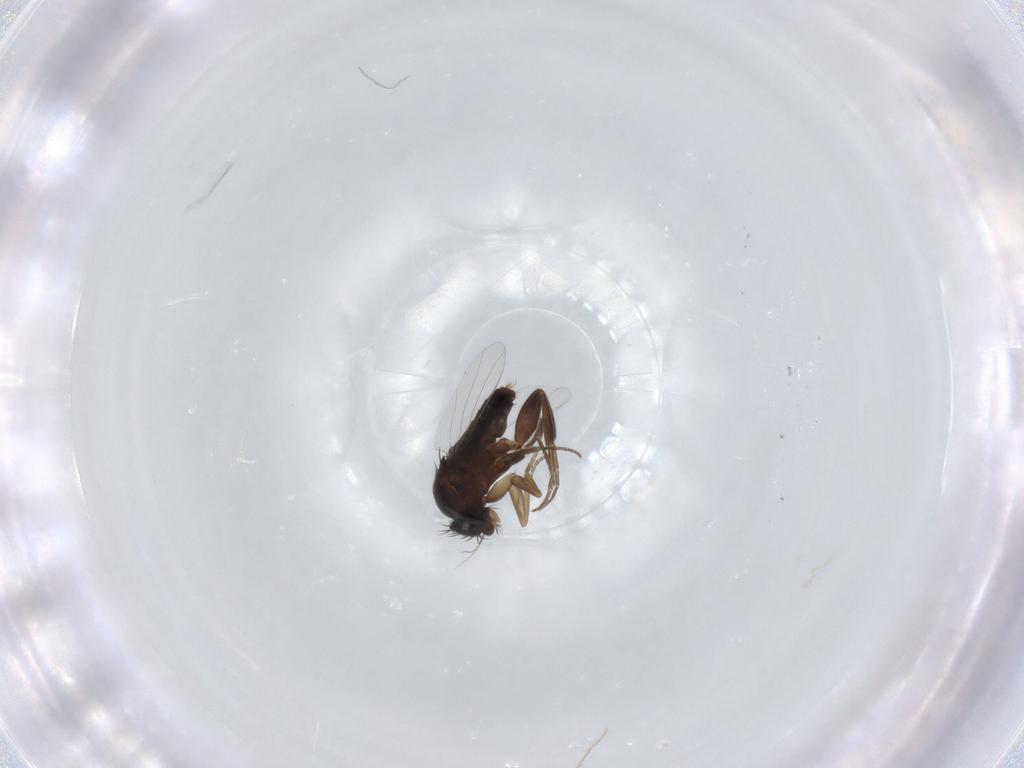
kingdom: Animalia
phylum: Arthropoda
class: Insecta
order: Diptera
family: Phoridae
